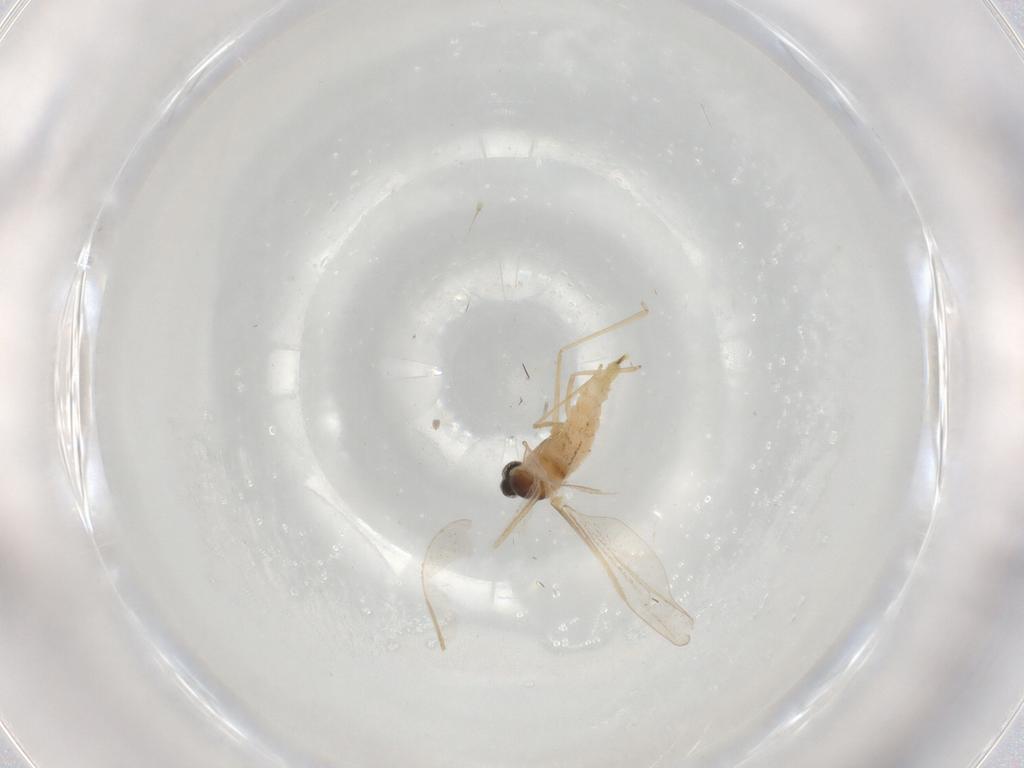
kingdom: Animalia
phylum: Arthropoda
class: Insecta
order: Diptera
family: Cecidomyiidae
